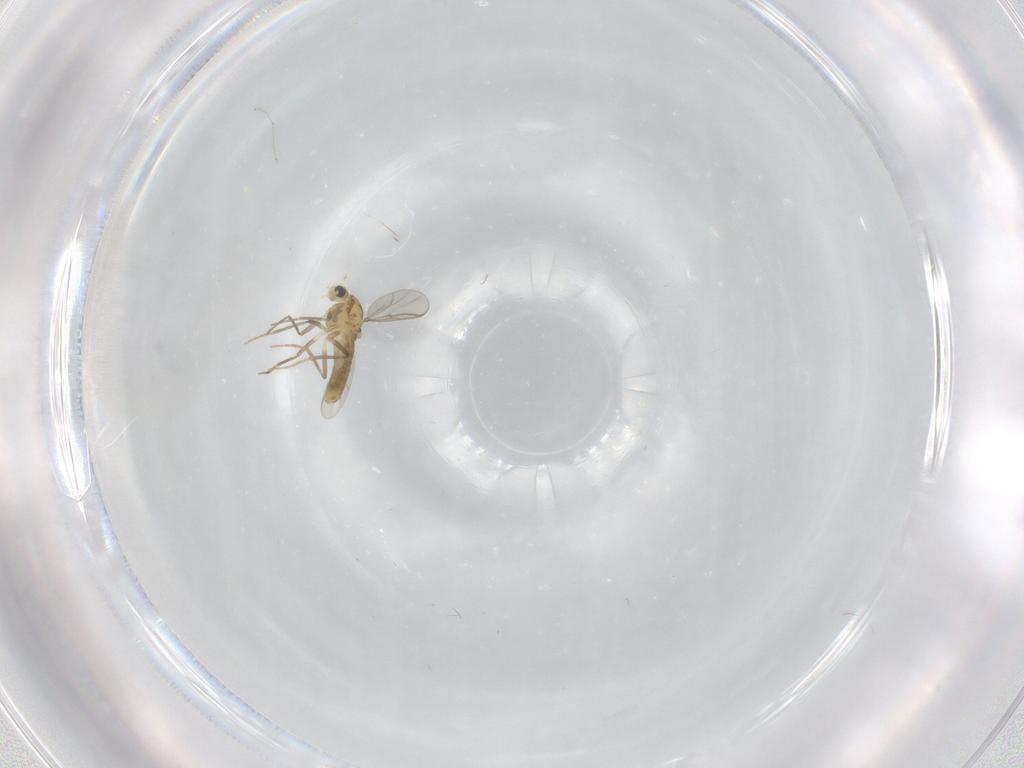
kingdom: Animalia
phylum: Arthropoda
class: Insecta
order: Diptera
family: Chironomidae
